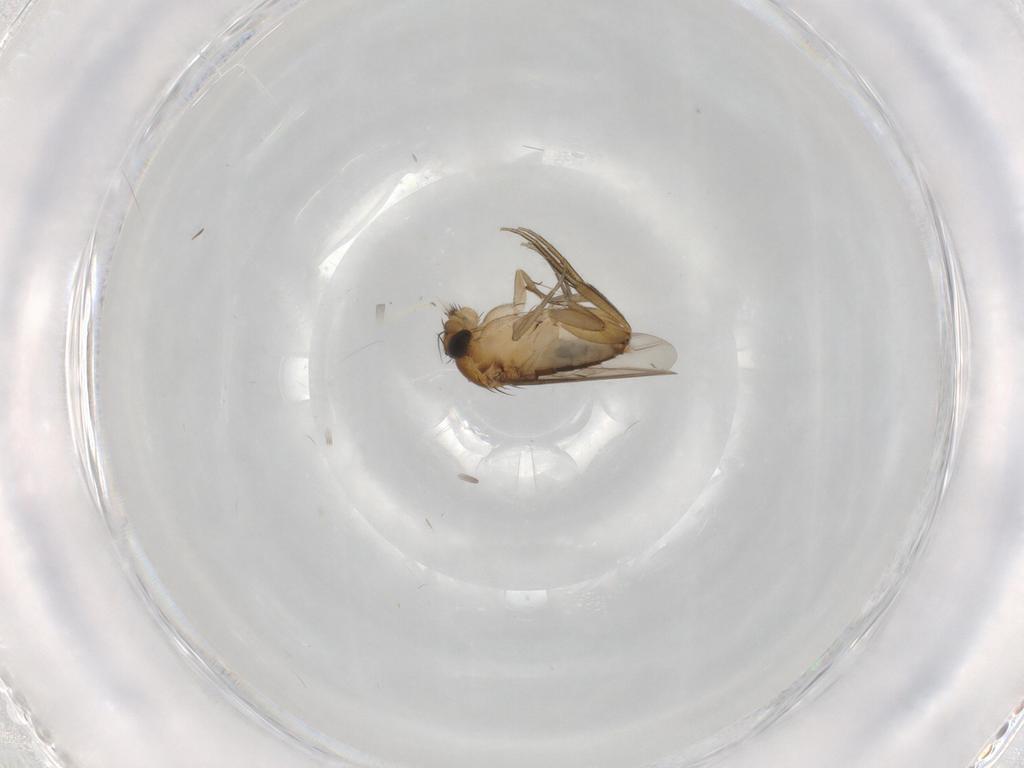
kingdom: Animalia
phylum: Arthropoda
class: Insecta
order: Diptera
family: Phoridae
